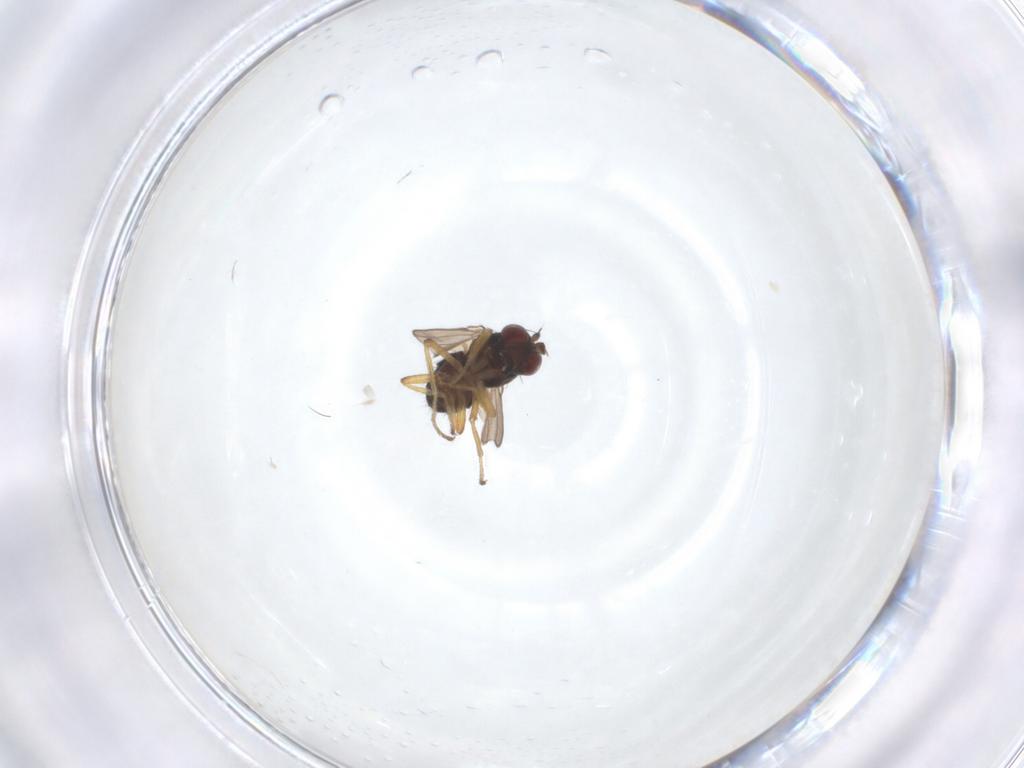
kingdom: Animalia
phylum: Arthropoda
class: Insecta
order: Diptera
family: Ephydridae
